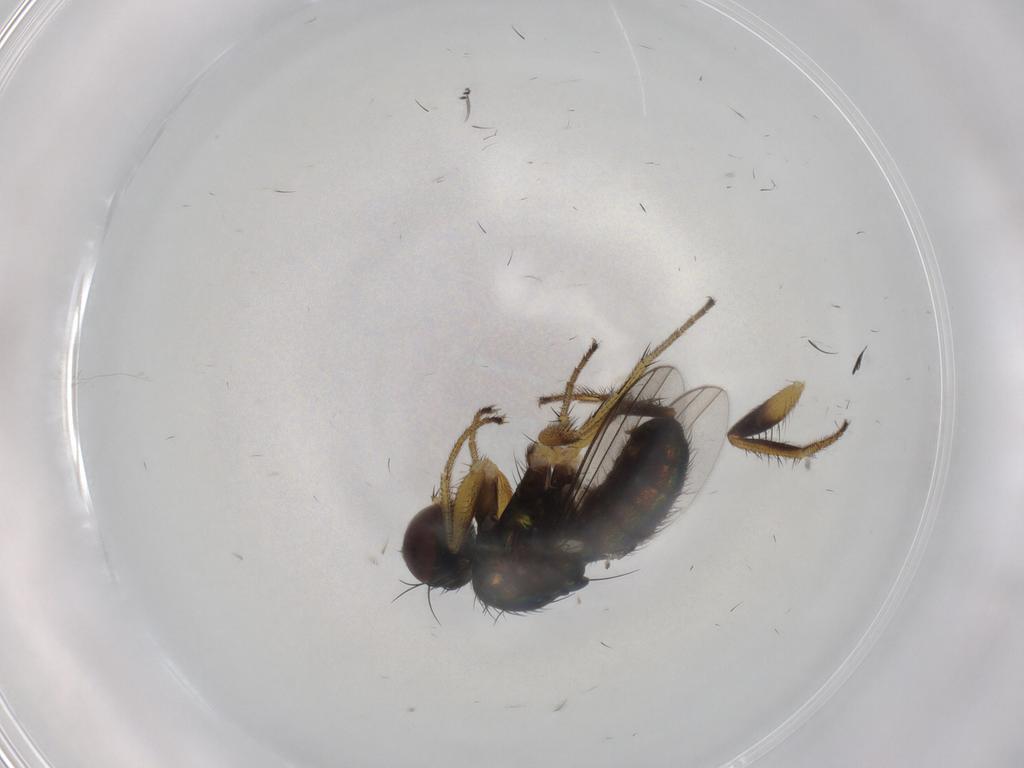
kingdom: Animalia
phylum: Arthropoda
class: Insecta
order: Diptera
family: Dolichopodidae
